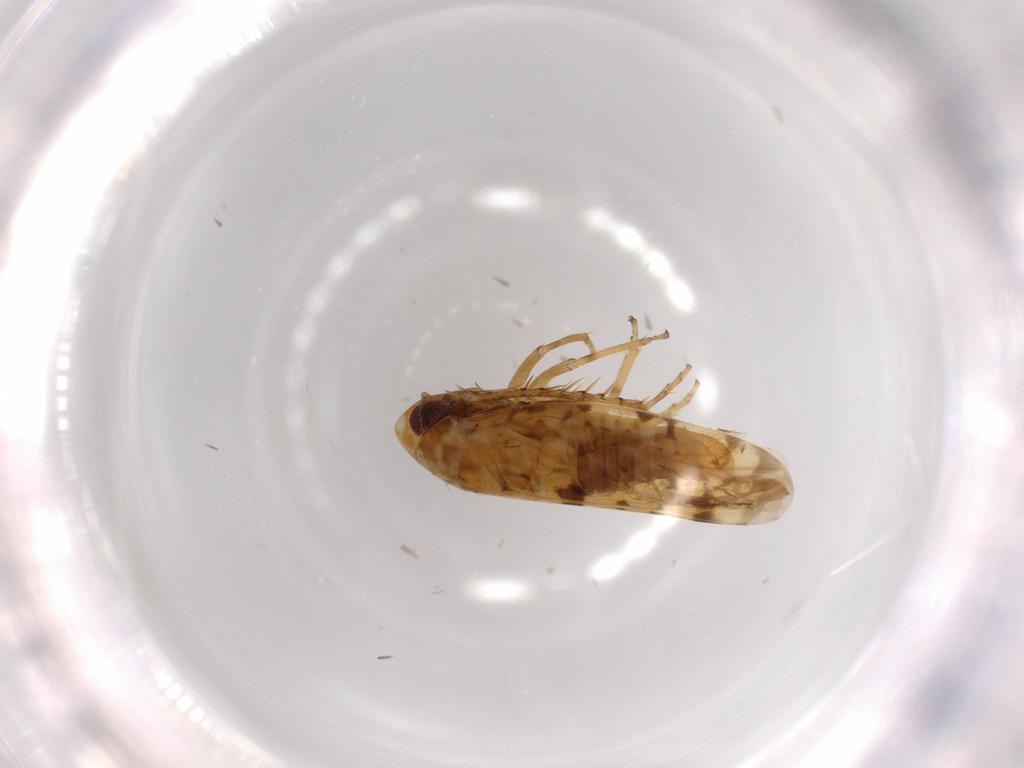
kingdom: Animalia
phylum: Arthropoda
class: Insecta
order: Hemiptera
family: Cicadellidae
